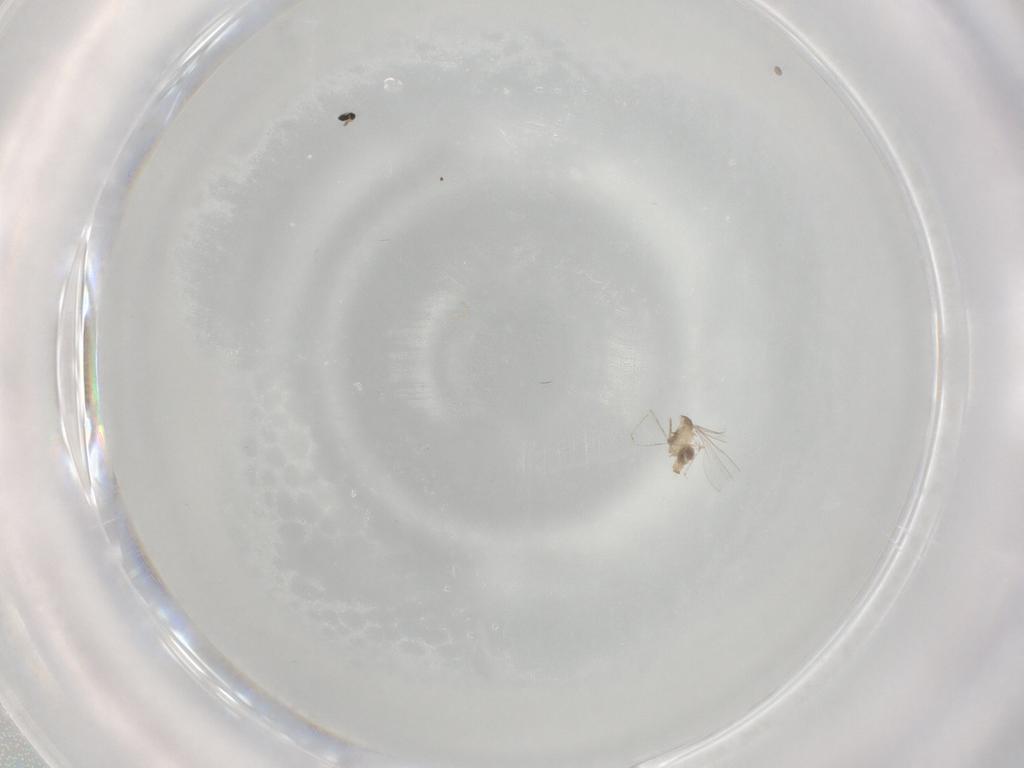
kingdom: Animalia
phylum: Arthropoda
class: Insecta
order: Diptera
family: Cecidomyiidae
